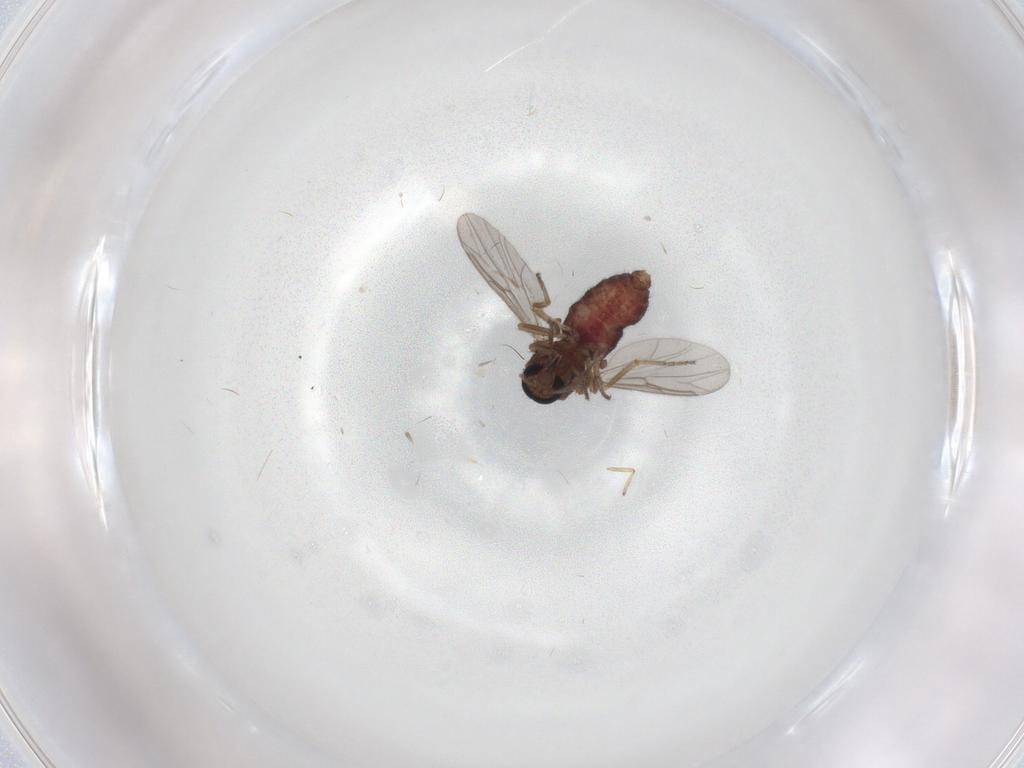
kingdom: Animalia
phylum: Arthropoda
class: Insecta
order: Diptera
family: Ceratopogonidae
